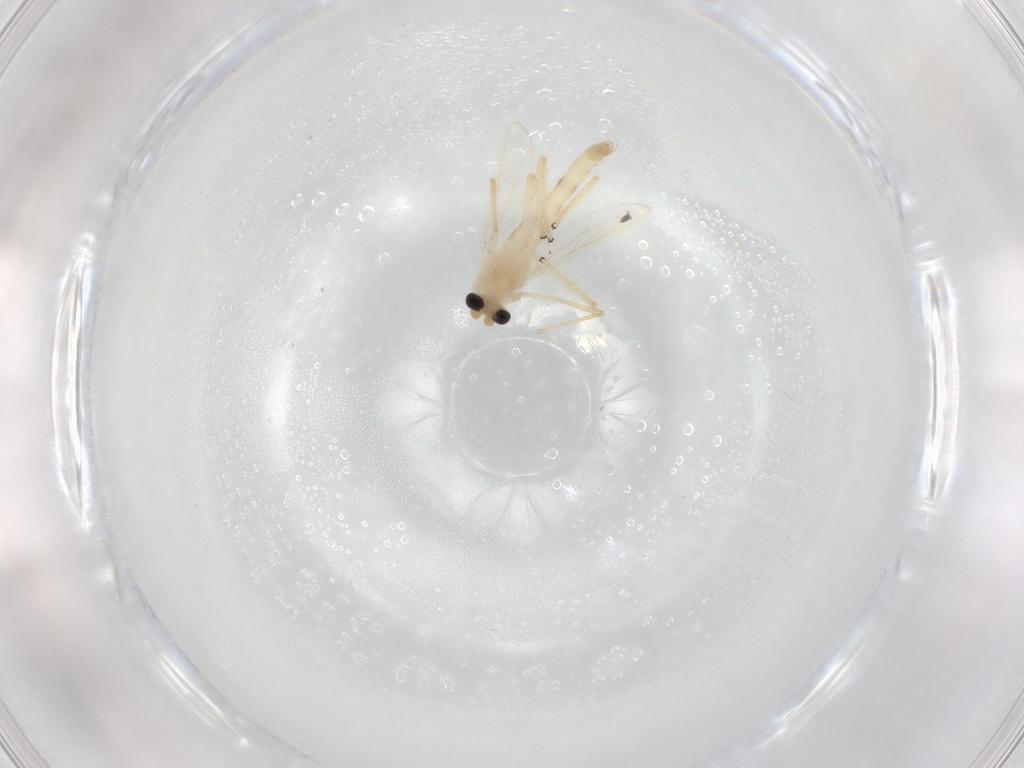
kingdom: Animalia
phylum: Arthropoda
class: Insecta
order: Diptera
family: Chironomidae
